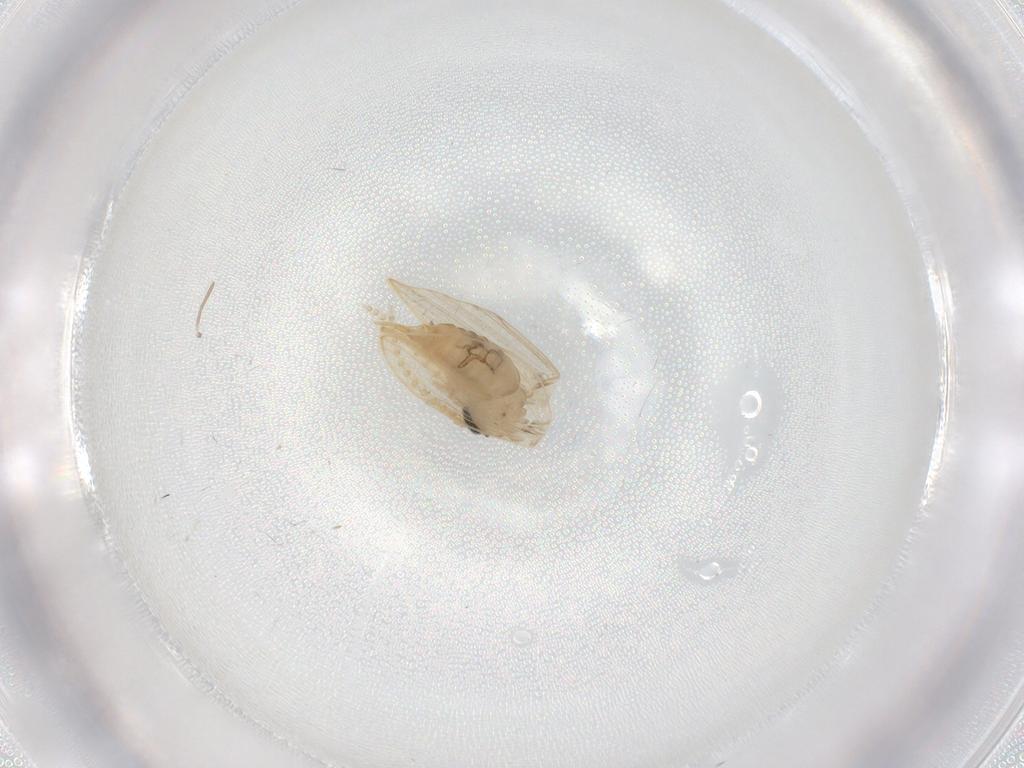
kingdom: Animalia
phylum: Arthropoda
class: Insecta
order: Diptera
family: Psychodidae
